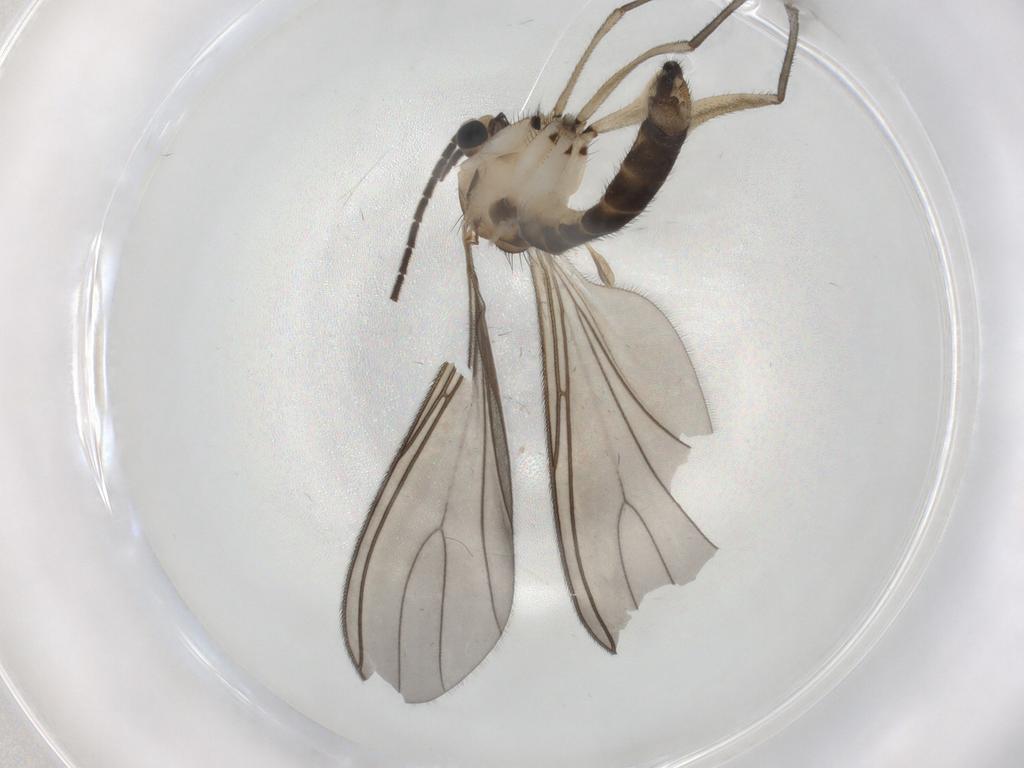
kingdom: Animalia
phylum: Arthropoda
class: Insecta
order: Diptera
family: Sciaridae
